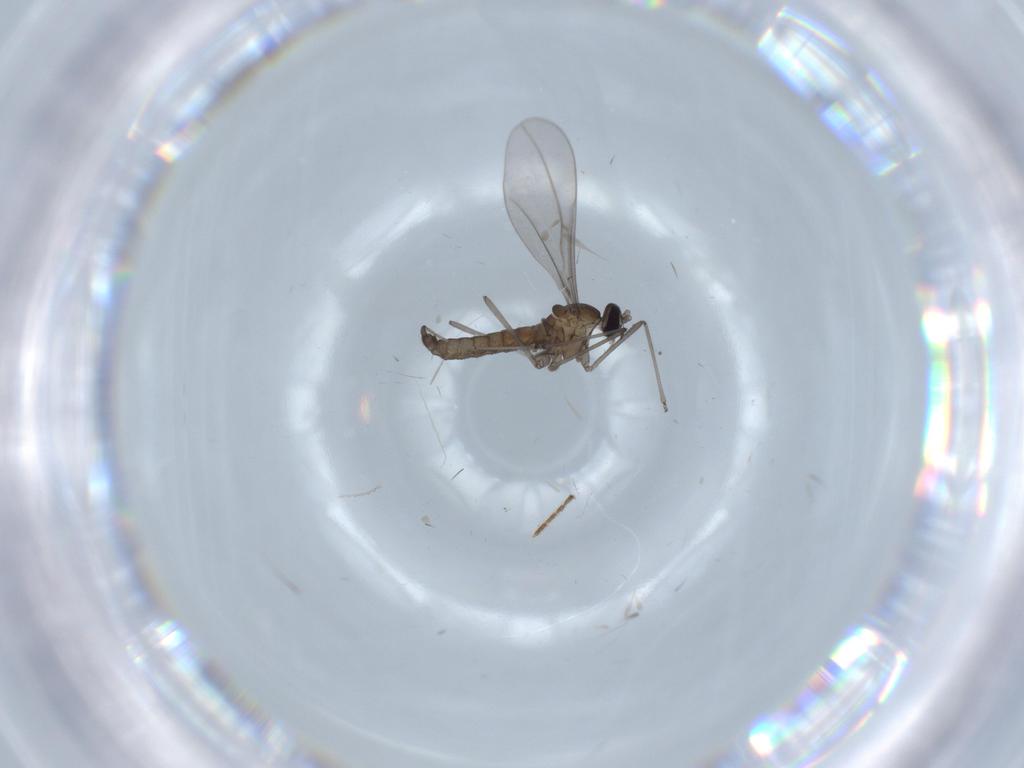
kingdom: Animalia
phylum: Arthropoda
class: Insecta
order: Diptera
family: Cecidomyiidae
